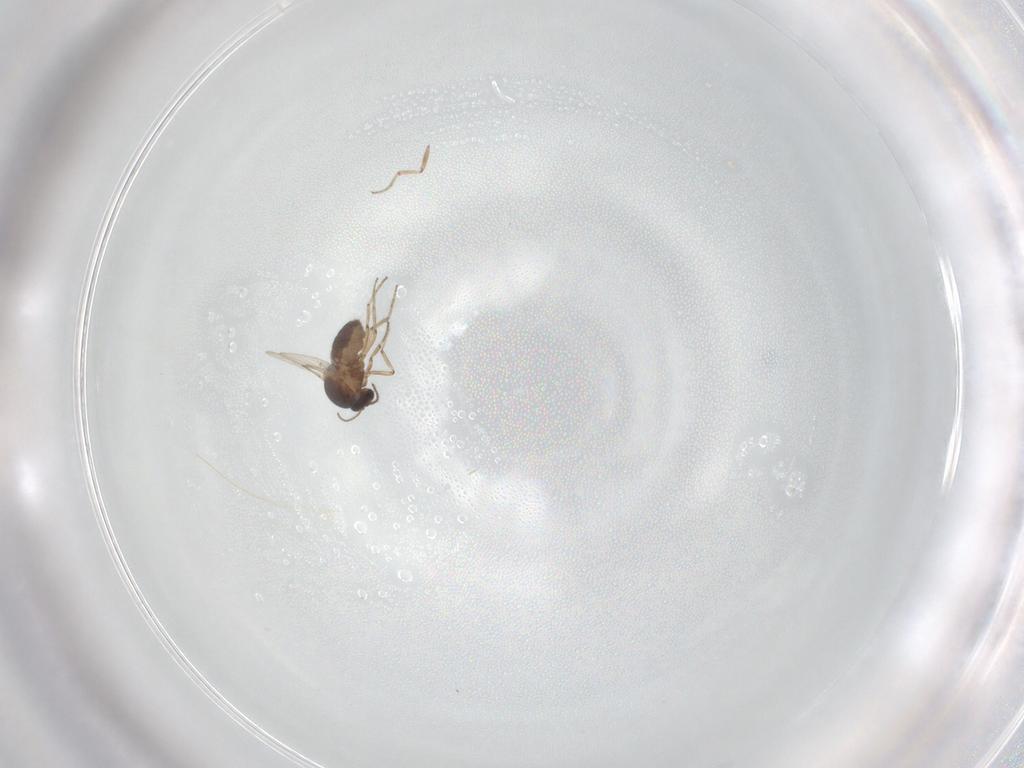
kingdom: Animalia
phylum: Arthropoda
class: Insecta
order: Diptera
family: Ceratopogonidae
